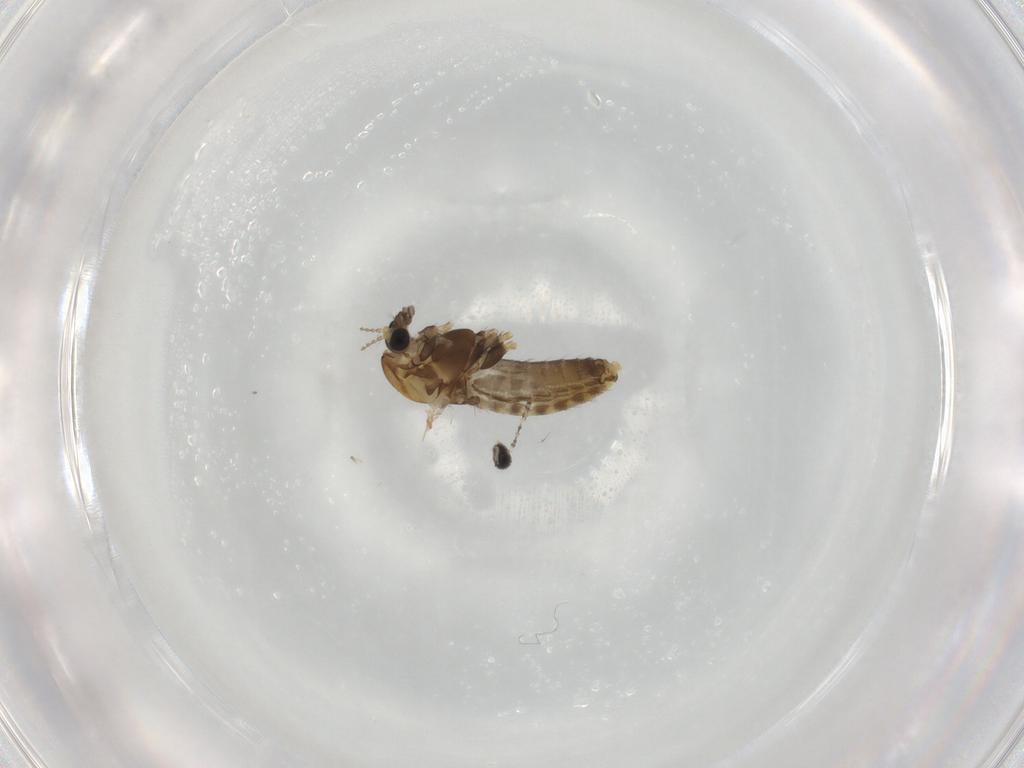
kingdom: Animalia
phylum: Arthropoda
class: Insecta
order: Diptera
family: Chironomidae
